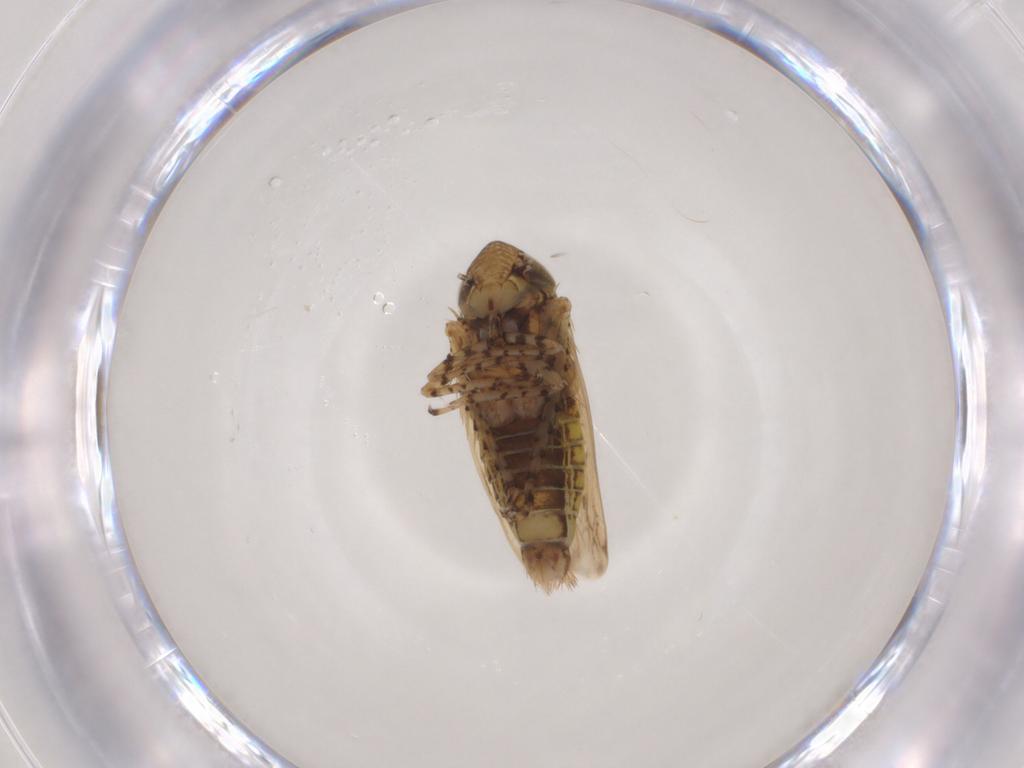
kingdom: Animalia
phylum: Arthropoda
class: Insecta
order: Hemiptera
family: Cicadellidae
